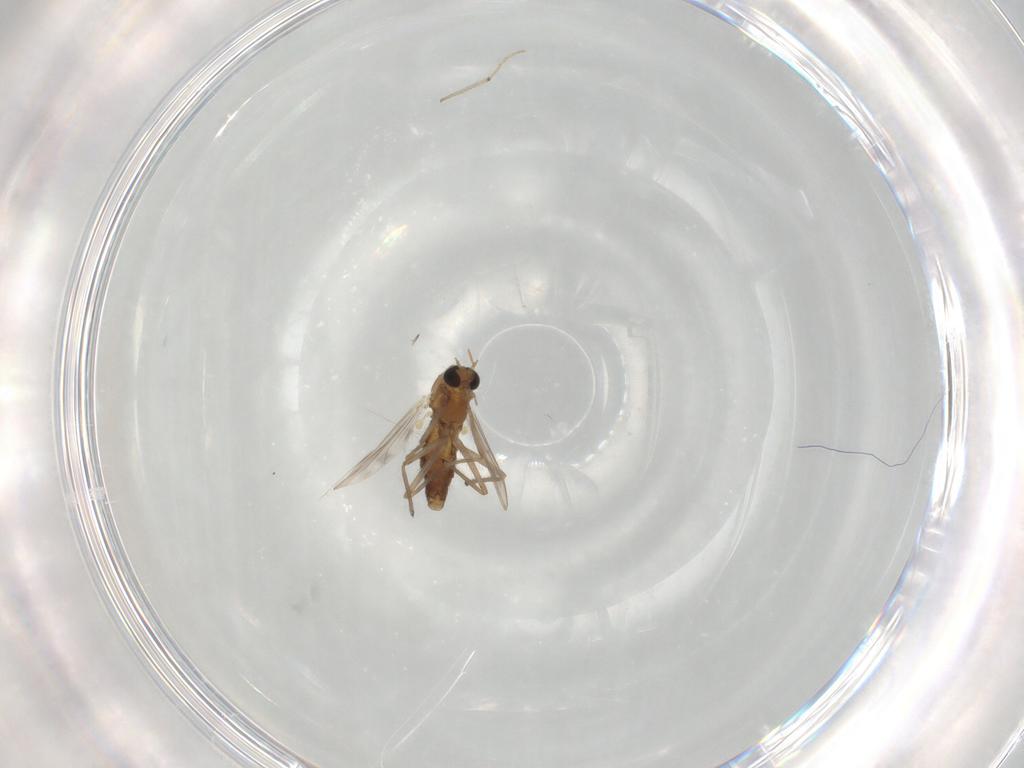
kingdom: Animalia
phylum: Arthropoda
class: Insecta
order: Diptera
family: Chironomidae
